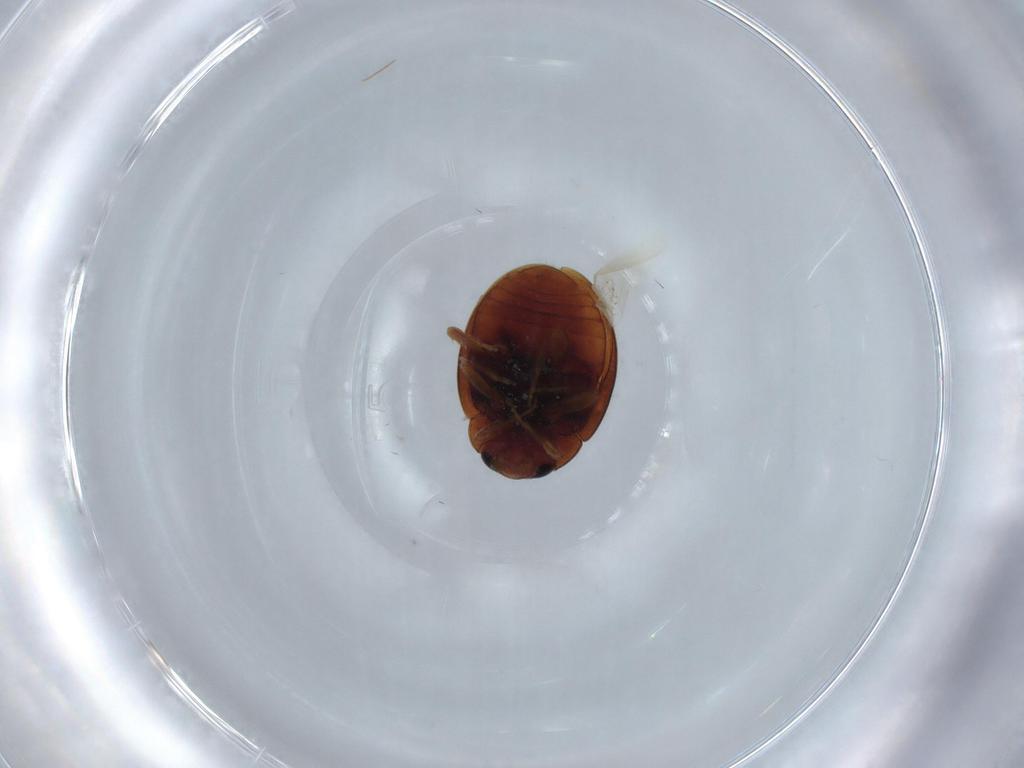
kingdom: Animalia
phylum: Arthropoda
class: Insecta
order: Coleoptera
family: Coccinellidae
